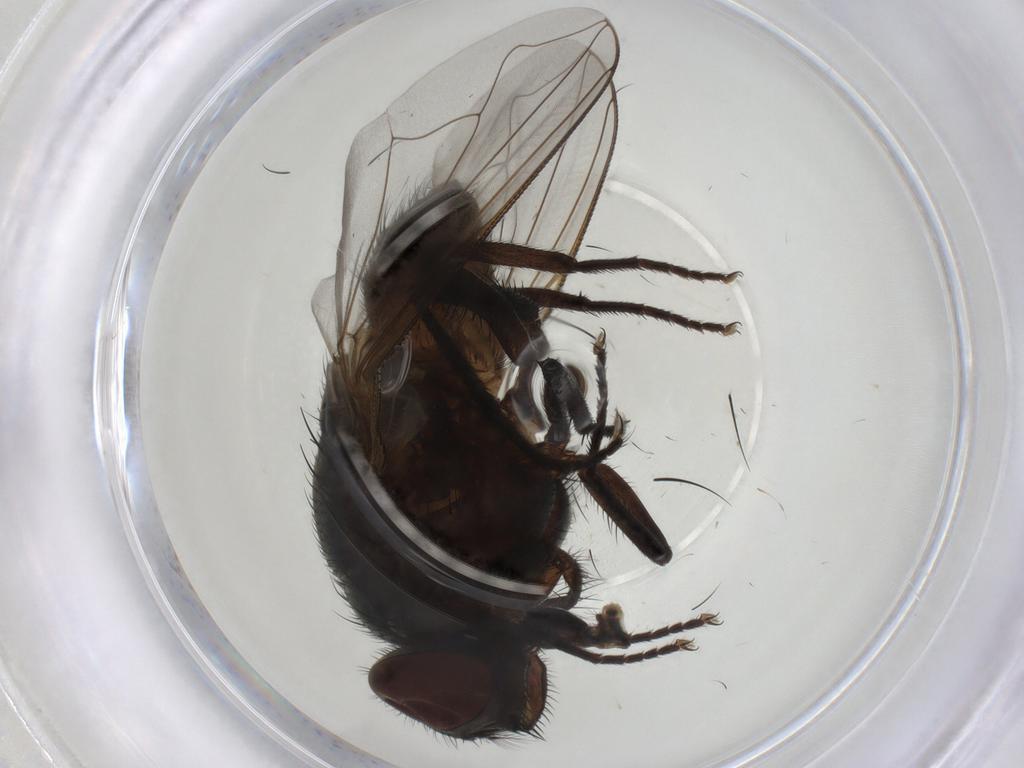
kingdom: Animalia
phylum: Arthropoda
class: Insecta
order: Diptera
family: Muscidae
